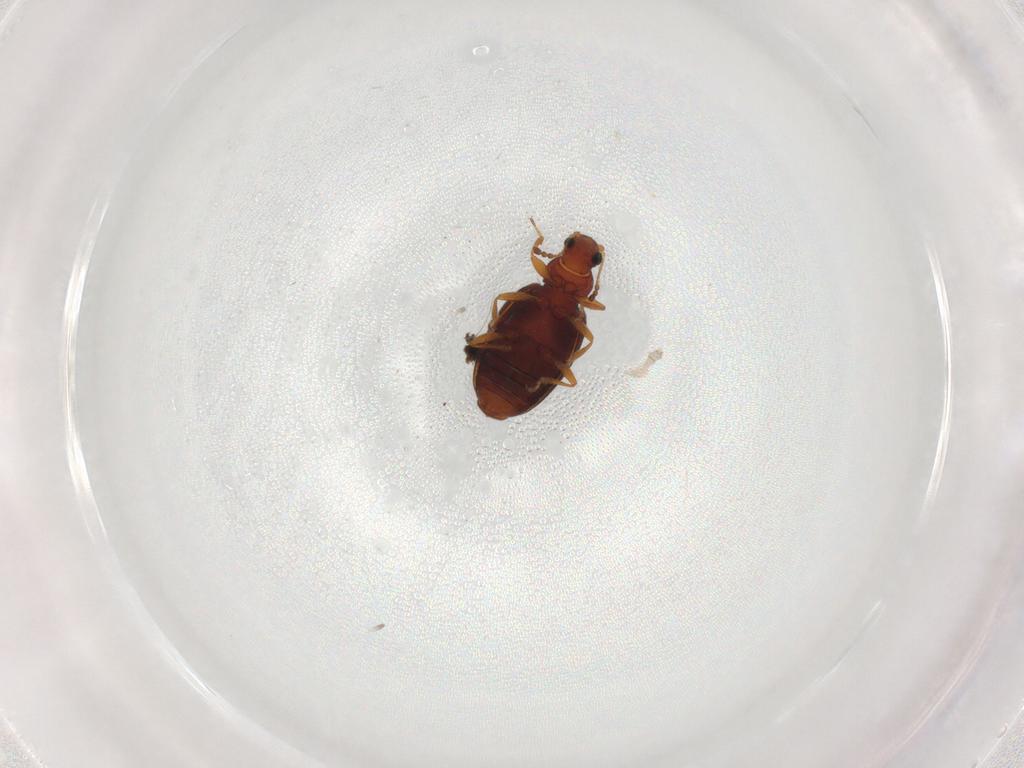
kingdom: Animalia
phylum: Arthropoda
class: Insecta
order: Coleoptera
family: Latridiidae
